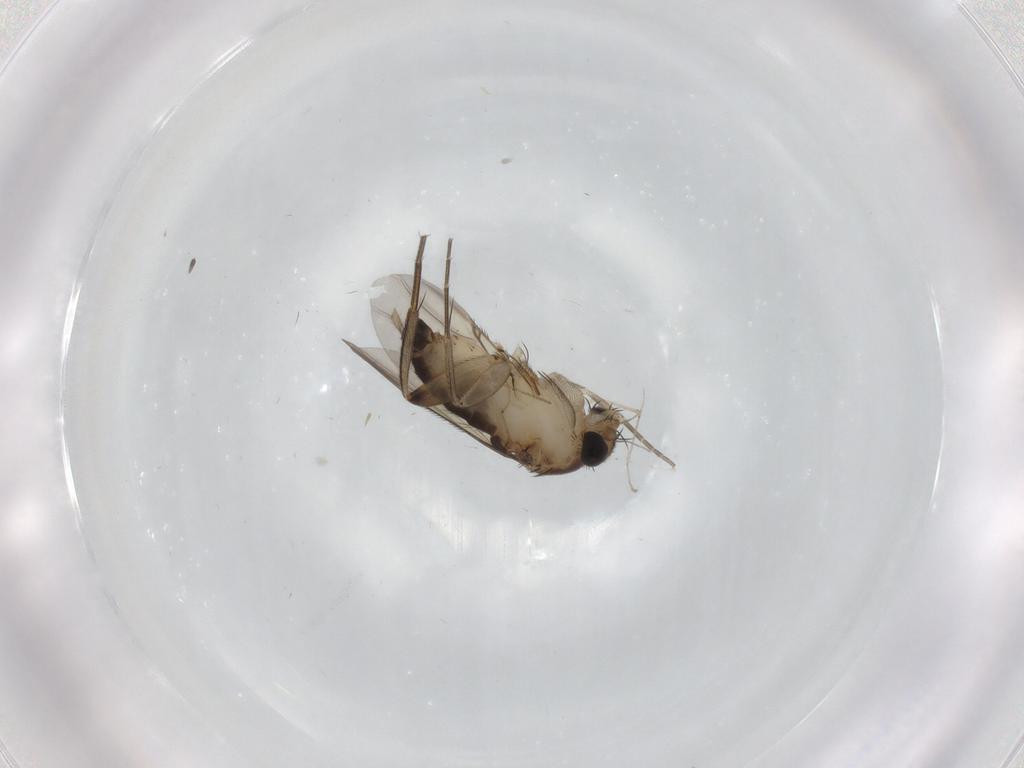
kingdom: Animalia
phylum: Arthropoda
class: Insecta
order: Diptera
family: Phoridae
